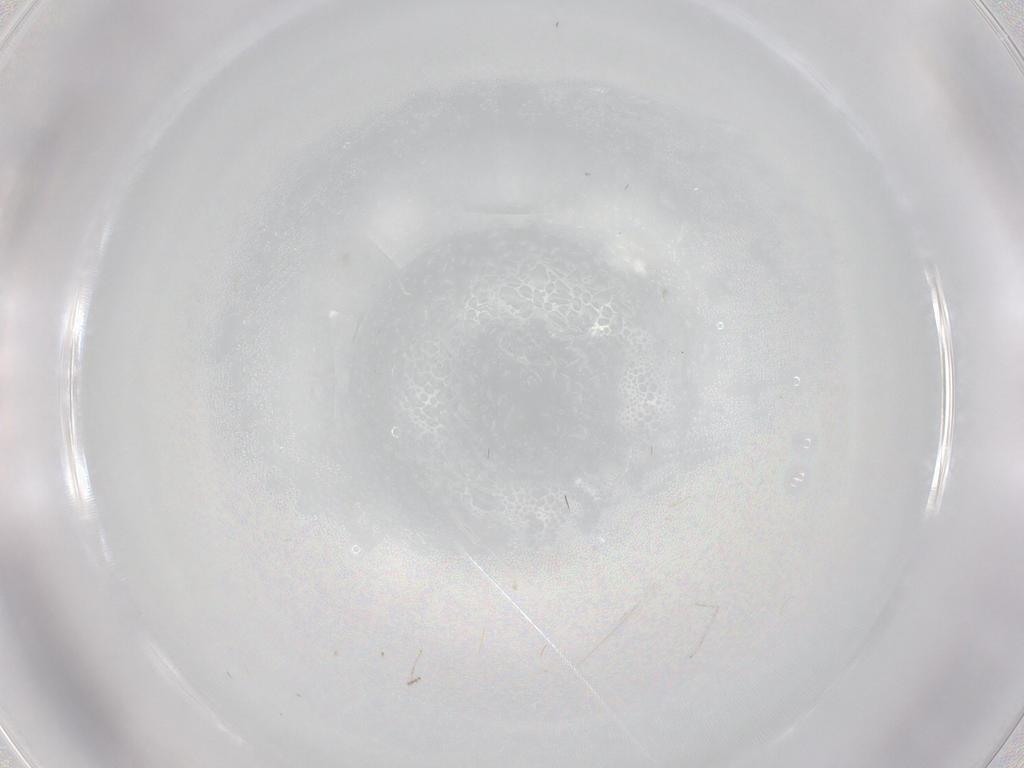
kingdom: Animalia
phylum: Arthropoda
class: Insecta
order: Diptera
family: Cecidomyiidae
